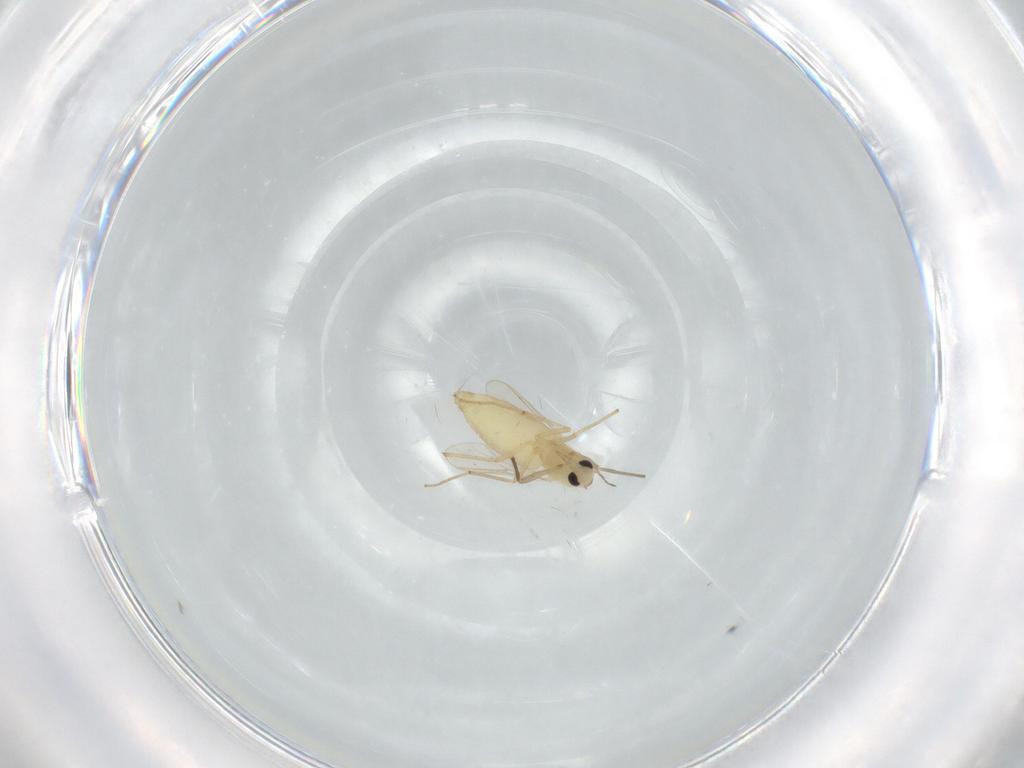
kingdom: Animalia
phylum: Arthropoda
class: Insecta
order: Diptera
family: Chironomidae
